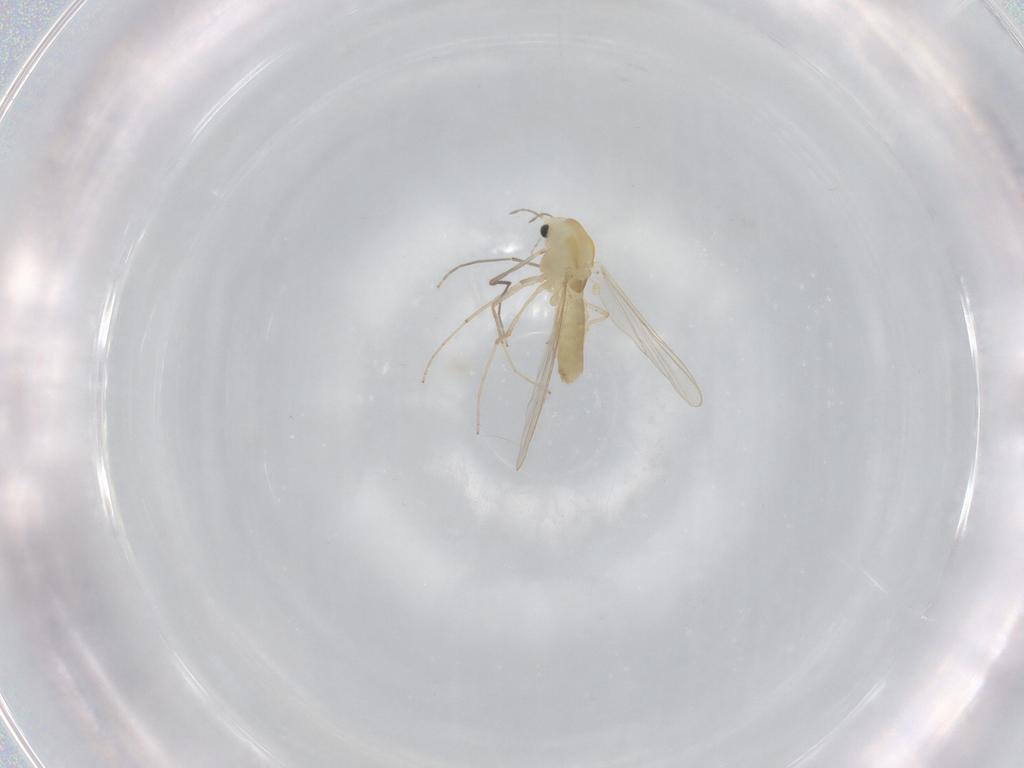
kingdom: Animalia
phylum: Arthropoda
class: Insecta
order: Diptera
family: Chironomidae
